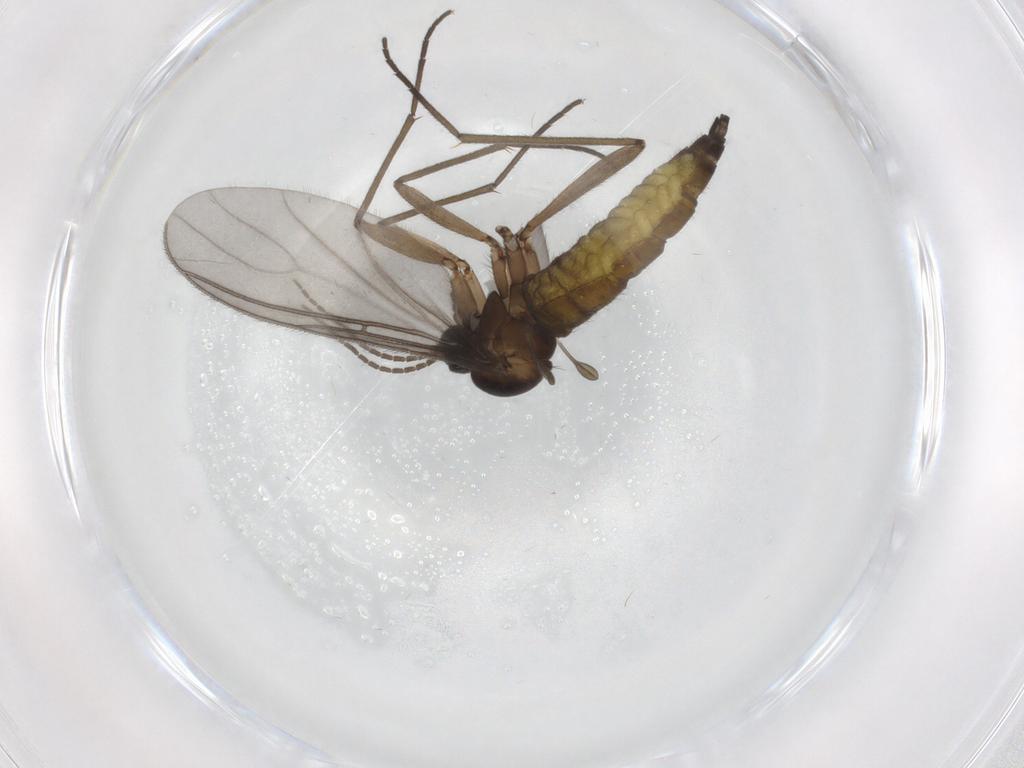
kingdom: Animalia
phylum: Arthropoda
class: Insecta
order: Diptera
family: Sciaridae
